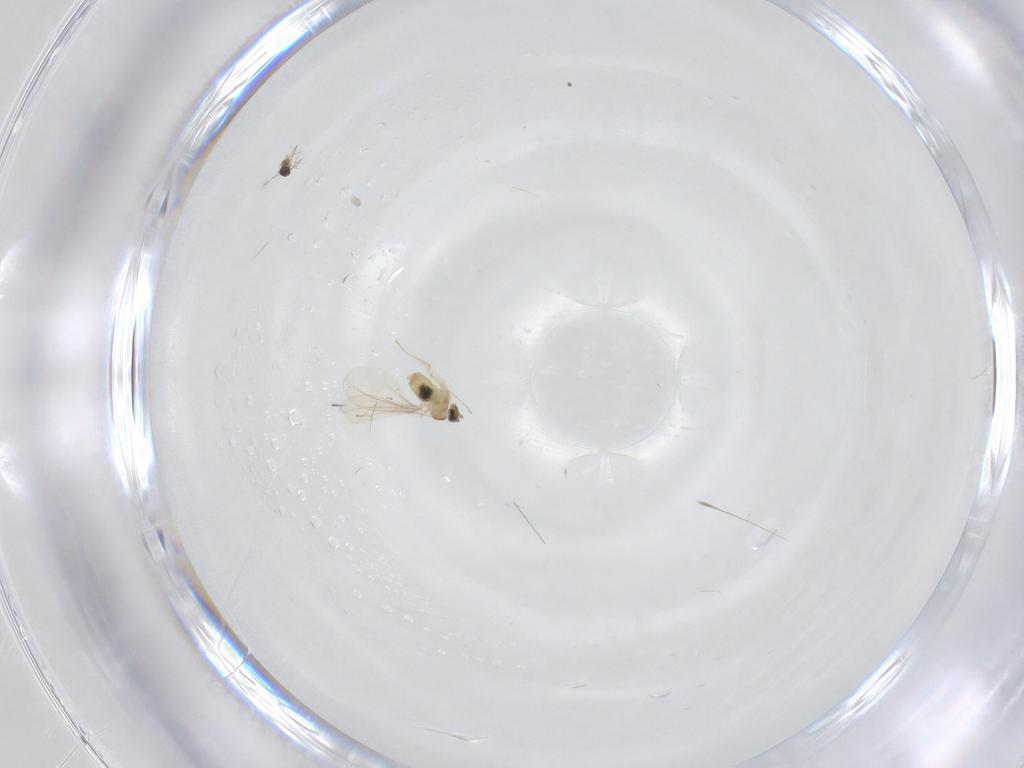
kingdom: Animalia
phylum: Arthropoda
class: Insecta
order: Diptera
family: Cecidomyiidae
